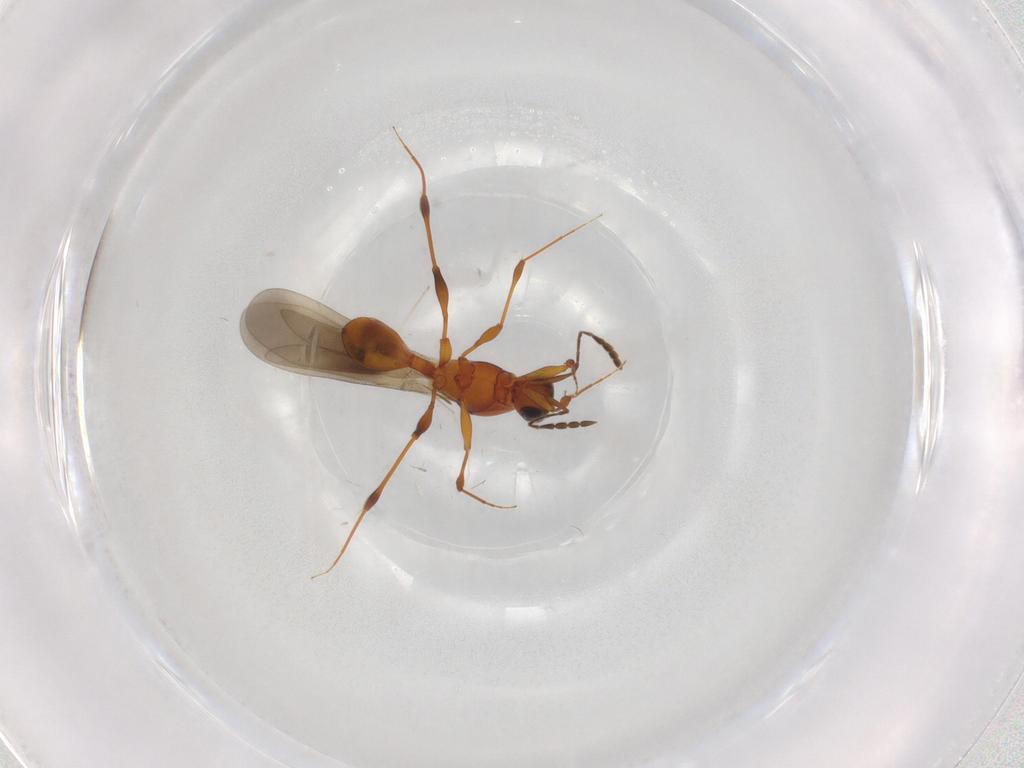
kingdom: Animalia
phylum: Arthropoda
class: Insecta
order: Hymenoptera
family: Platygastridae
